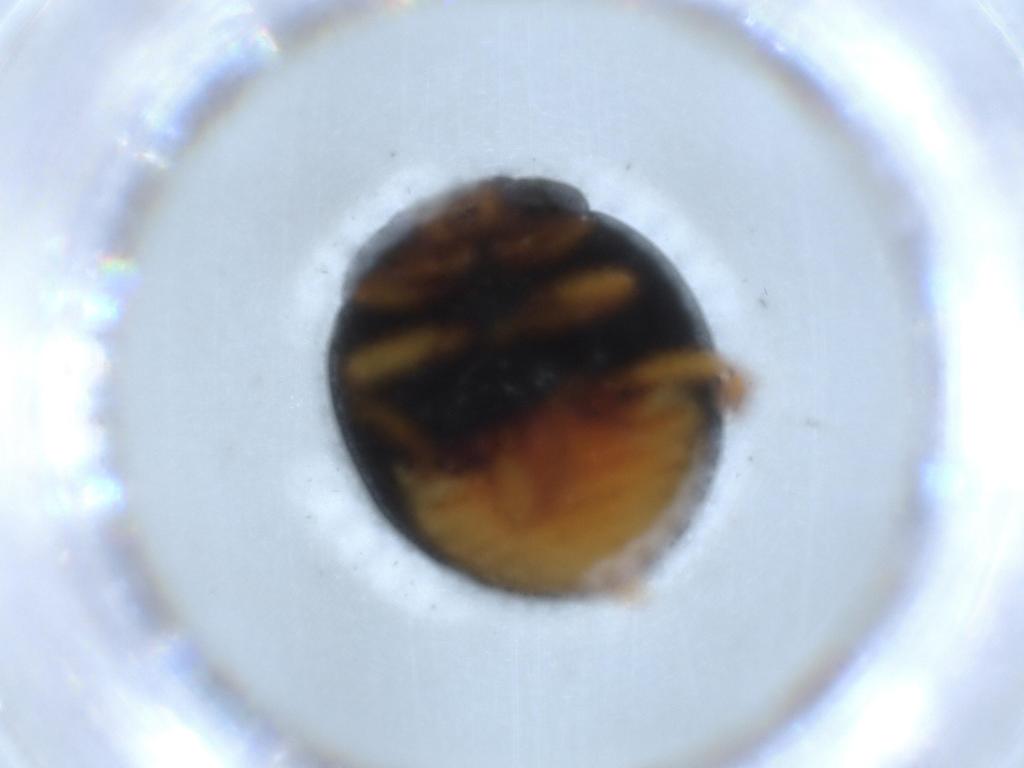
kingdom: Animalia
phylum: Arthropoda
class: Insecta
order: Coleoptera
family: Coccinellidae
